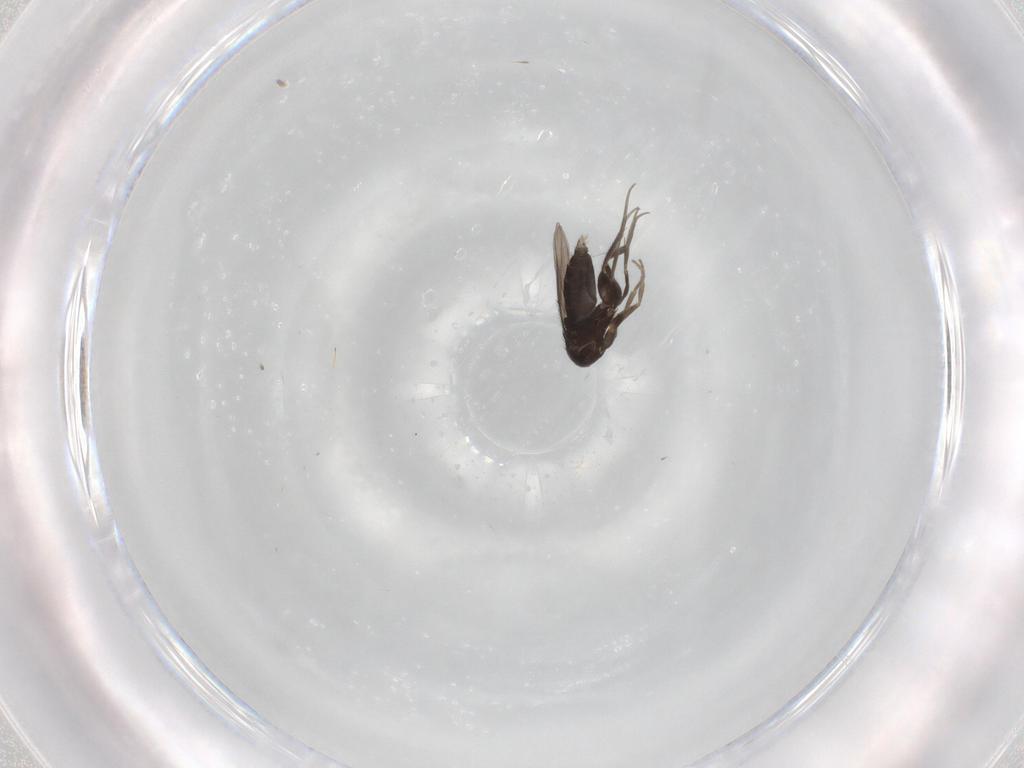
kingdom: Animalia
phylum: Arthropoda
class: Insecta
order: Diptera
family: Phoridae
